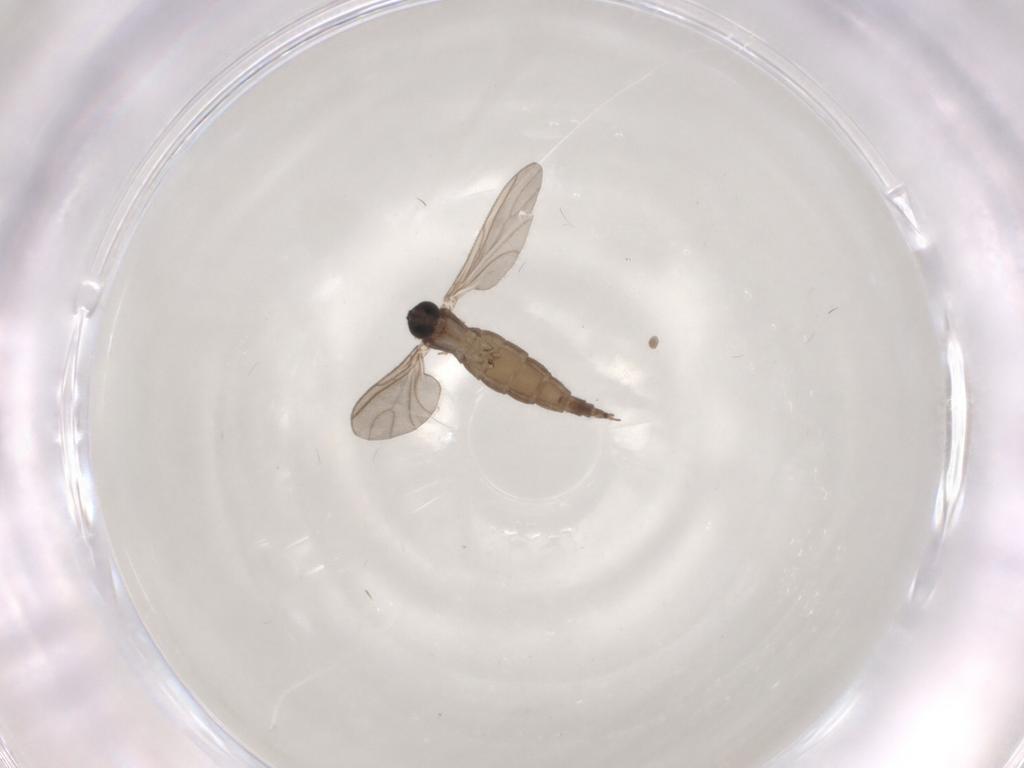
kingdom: Animalia
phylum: Arthropoda
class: Insecta
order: Diptera
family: Sciaridae
